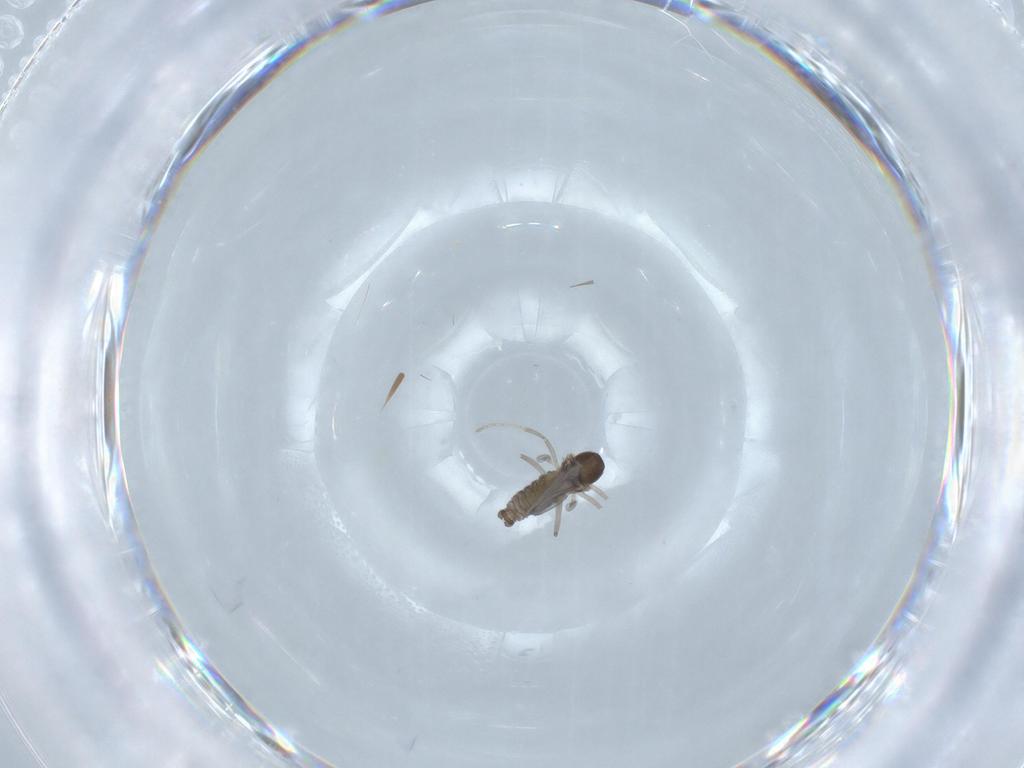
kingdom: Animalia
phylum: Arthropoda
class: Insecta
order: Diptera
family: Cecidomyiidae
